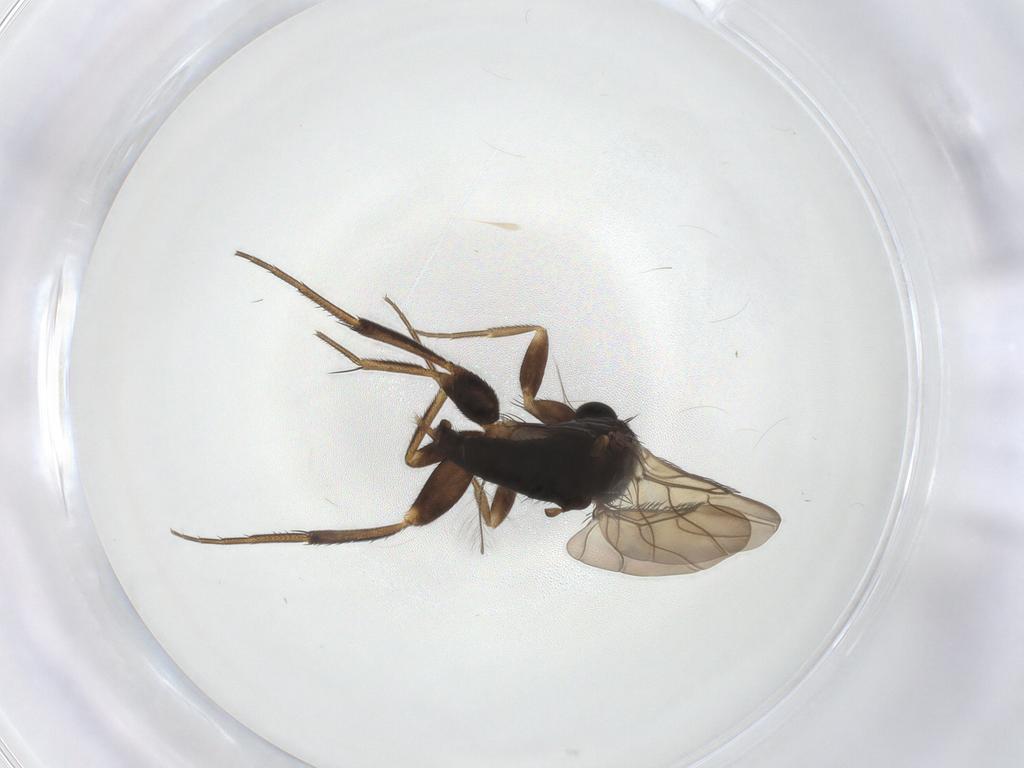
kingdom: Animalia
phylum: Arthropoda
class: Insecta
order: Diptera
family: Phoridae
